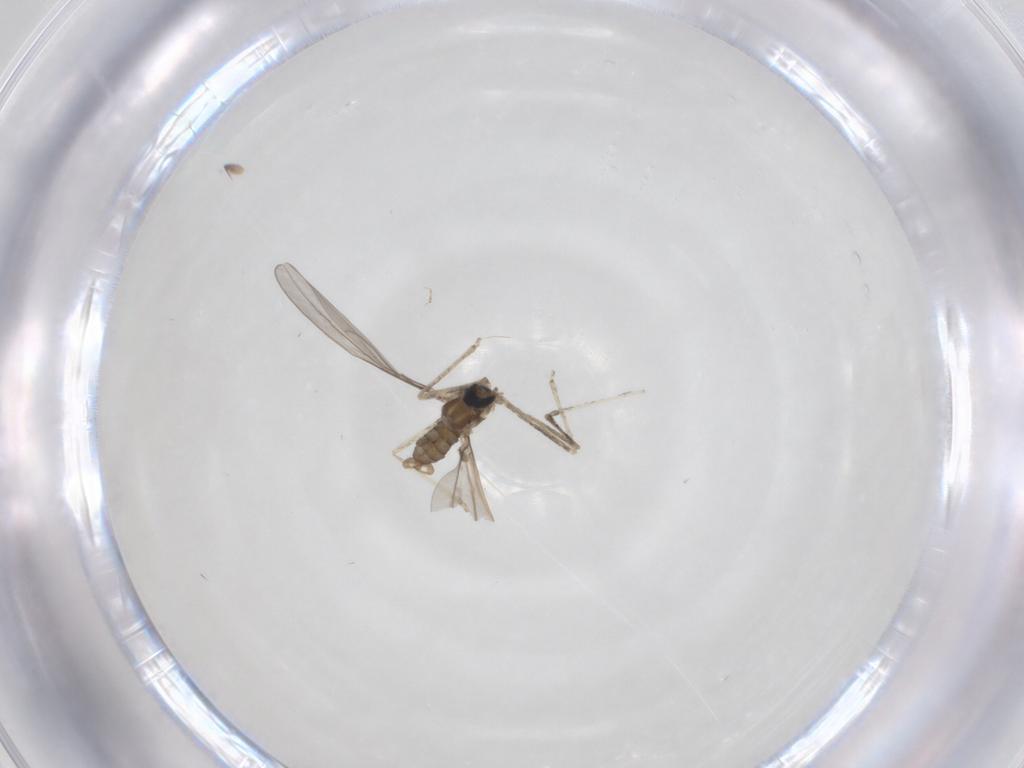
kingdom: Animalia
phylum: Arthropoda
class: Insecta
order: Diptera
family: Cecidomyiidae
